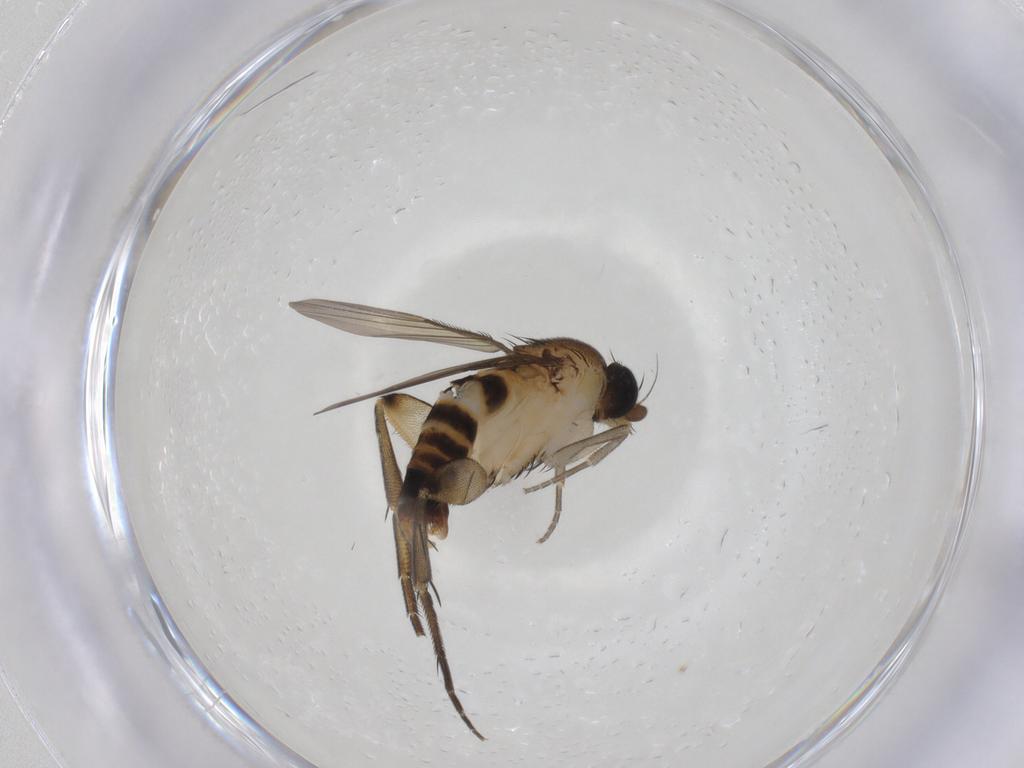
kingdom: Animalia
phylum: Arthropoda
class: Insecta
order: Diptera
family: Phoridae
